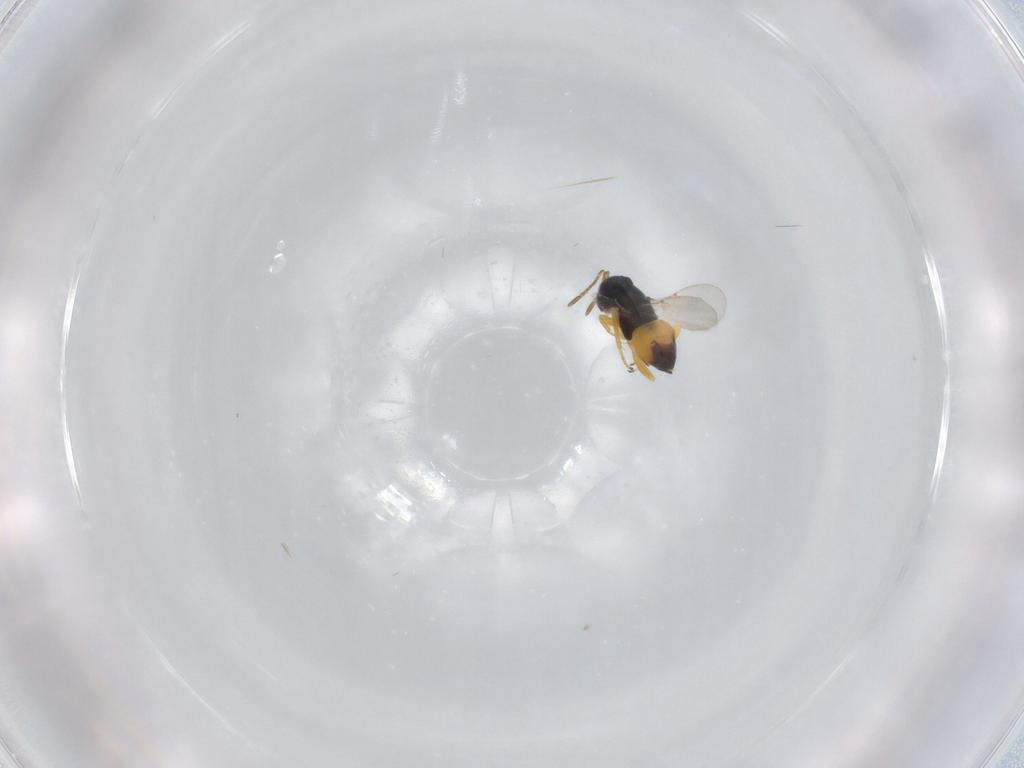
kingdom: Animalia
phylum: Arthropoda
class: Insecta
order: Hymenoptera
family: Encyrtidae
